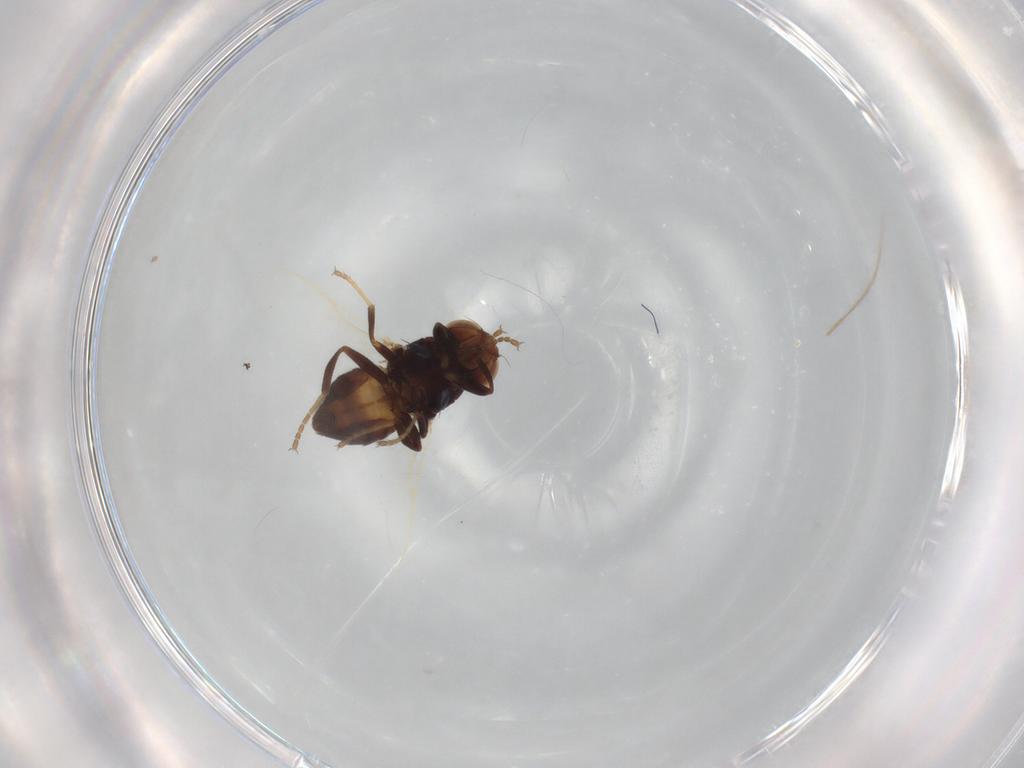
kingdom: Animalia
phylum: Arthropoda
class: Insecta
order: Diptera
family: Chloropidae
